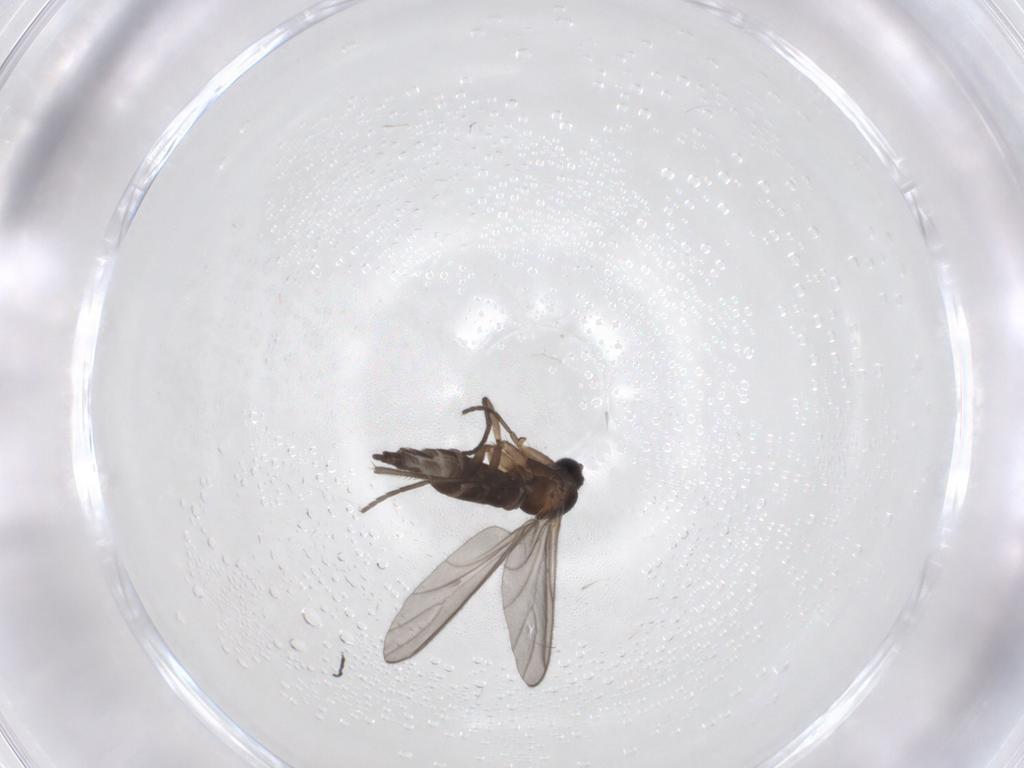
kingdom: Animalia
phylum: Arthropoda
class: Insecta
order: Diptera
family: Sciaridae
